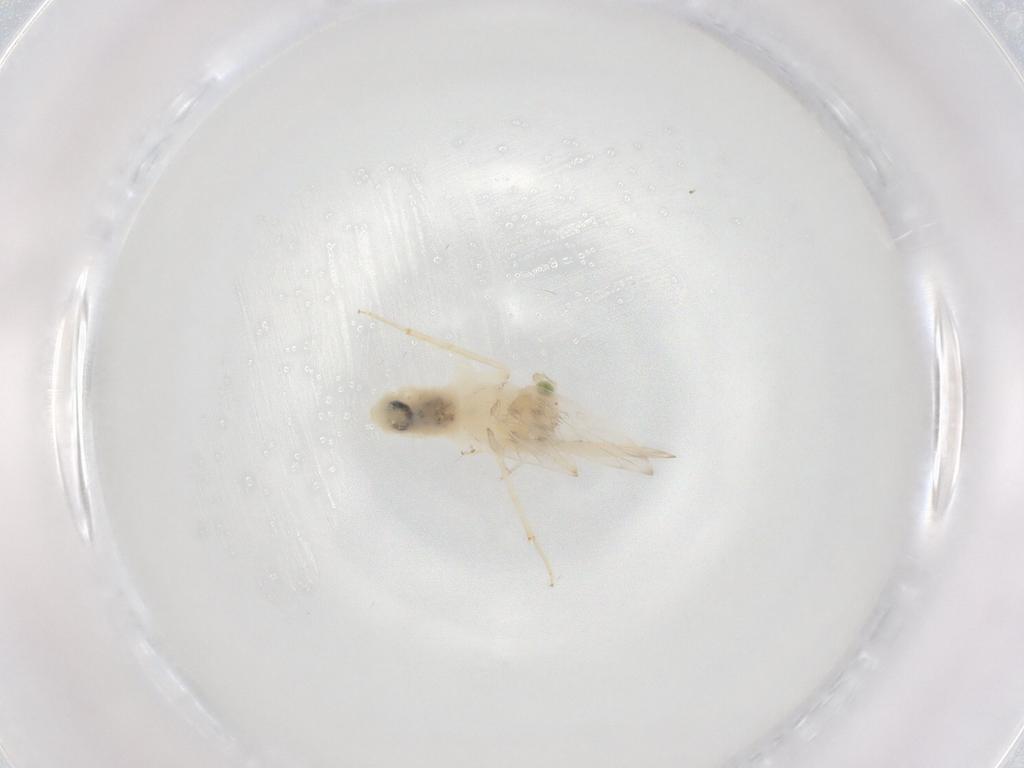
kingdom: Animalia
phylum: Arthropoda
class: Insecta
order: Psocodea
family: Lepidopsocidae
